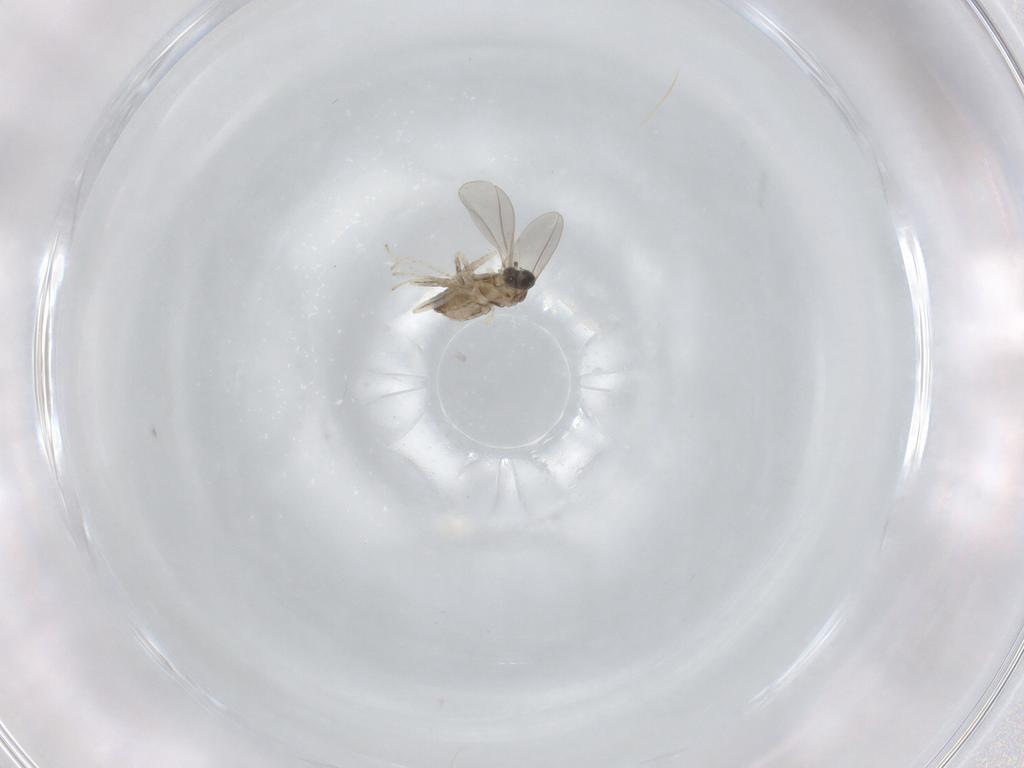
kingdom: Animalia
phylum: Arthropoda
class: Insecta
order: Diptera
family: Cecidomyiidae
